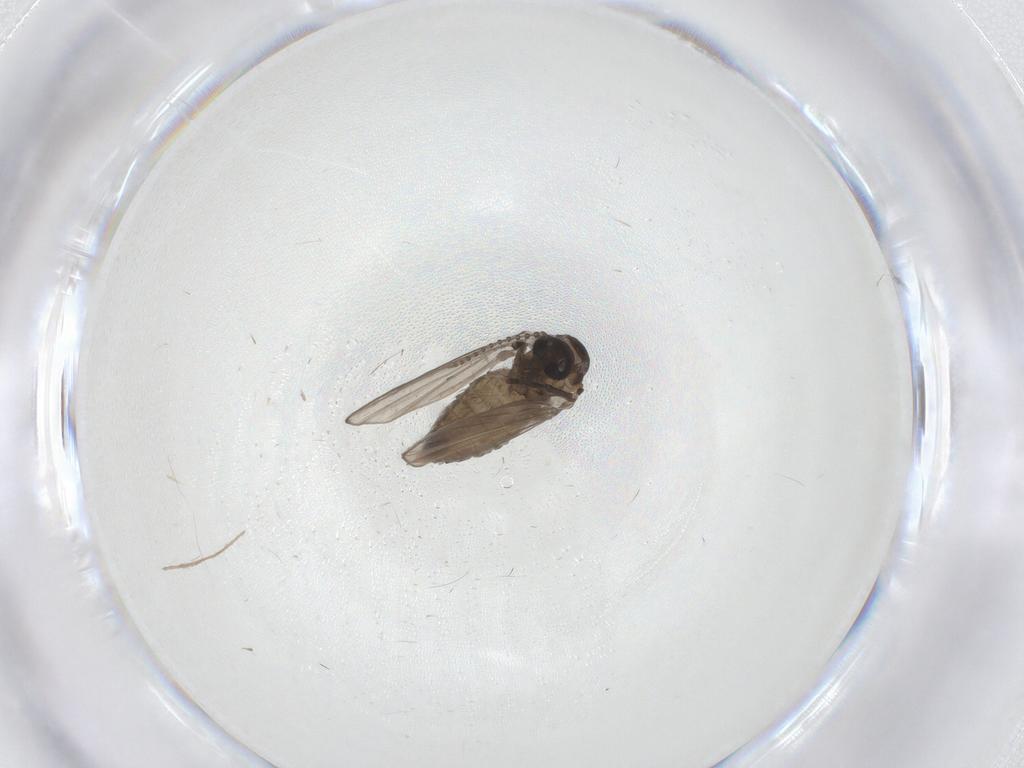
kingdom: Animalia
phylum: Arthropoda
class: Insecta
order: Diptera
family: Psychodidae
